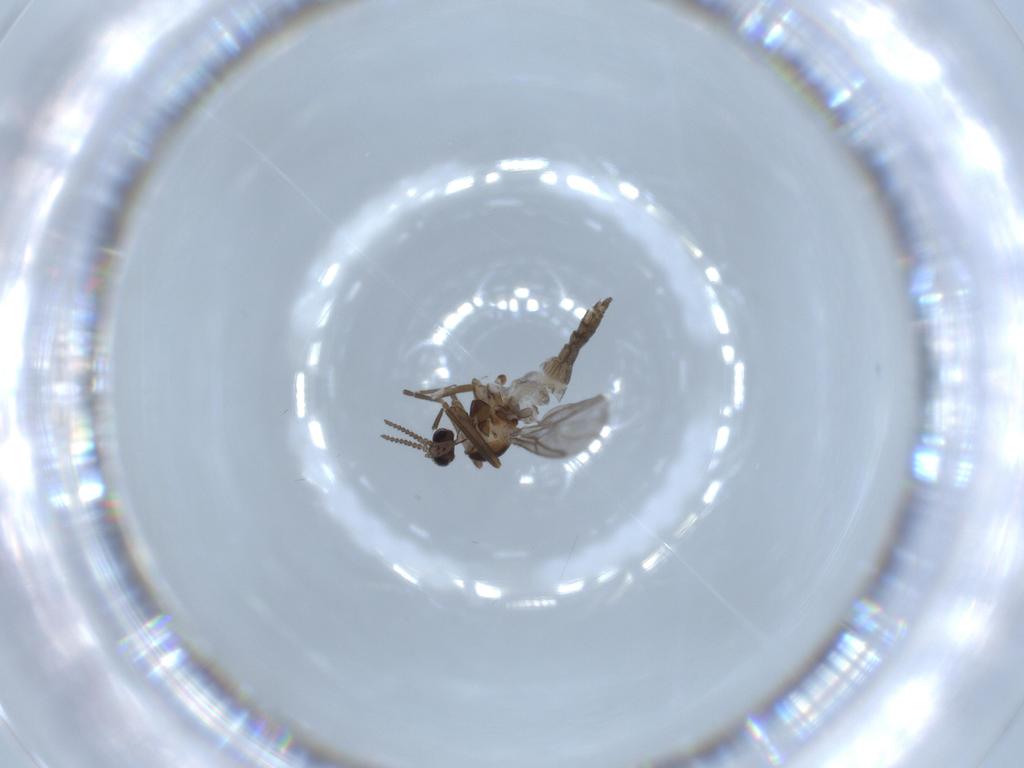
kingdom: Animalia
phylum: Arthropoda
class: Insecta
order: Diptera
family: Cecidomyiidae
